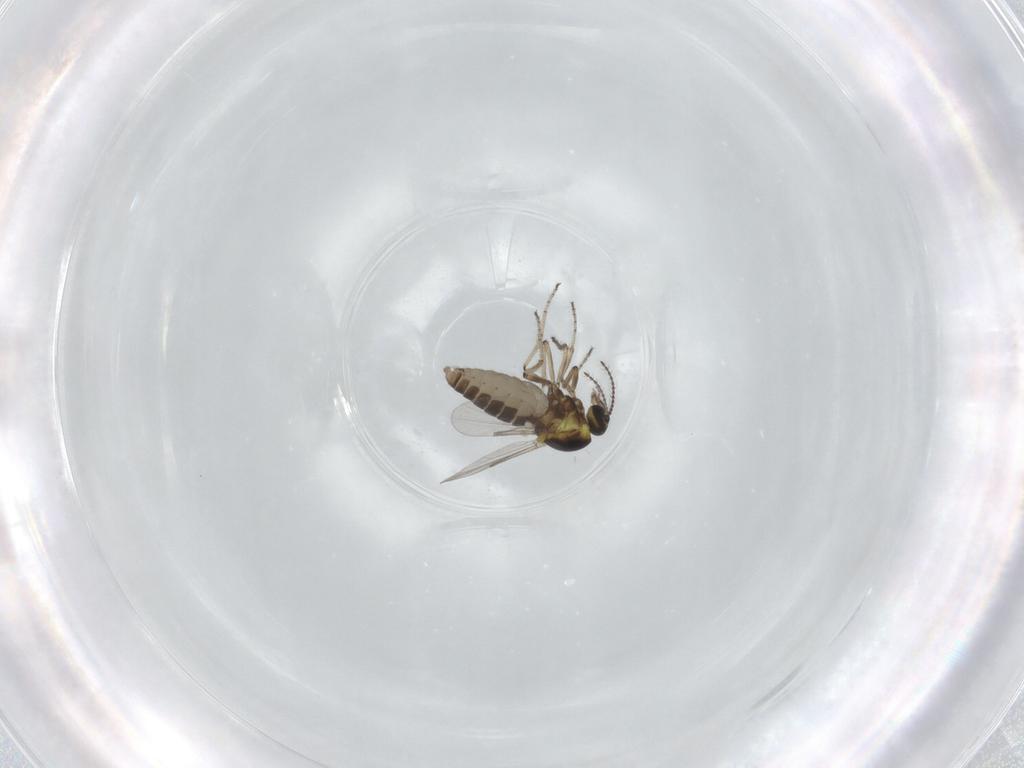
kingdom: Animalia
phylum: Arthropoda
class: Insecta
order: Diptera
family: Ceratopogonidae
